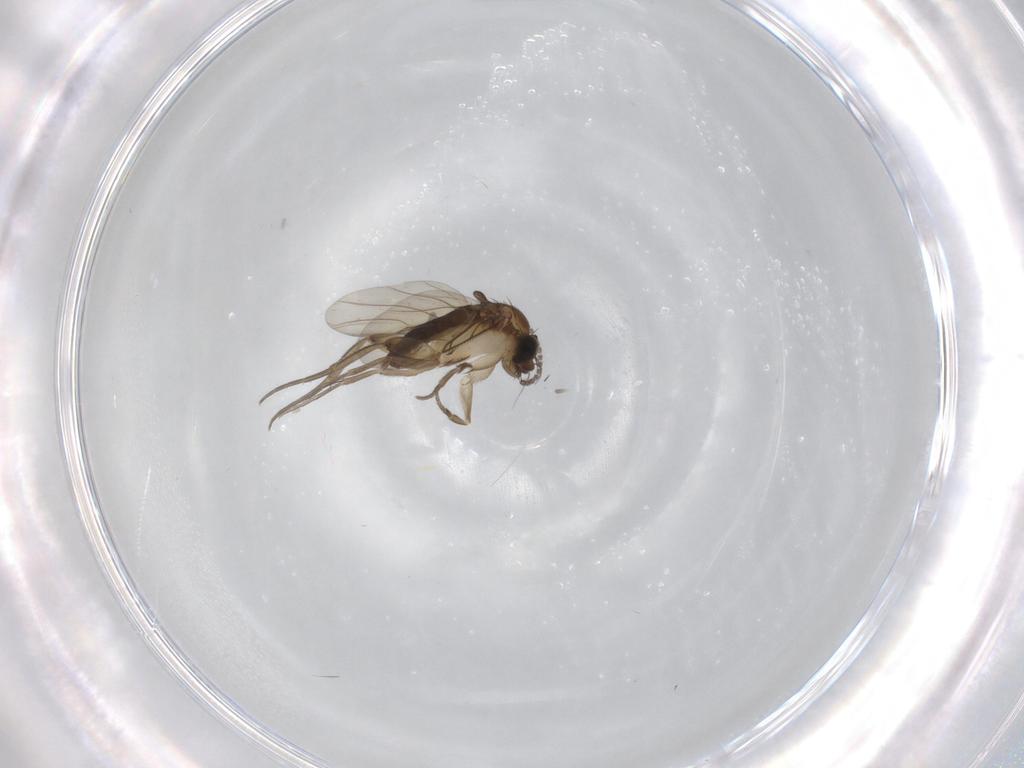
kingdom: Animalia
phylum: Arthropoda
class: Insecta
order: Diptera
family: Phoridae
